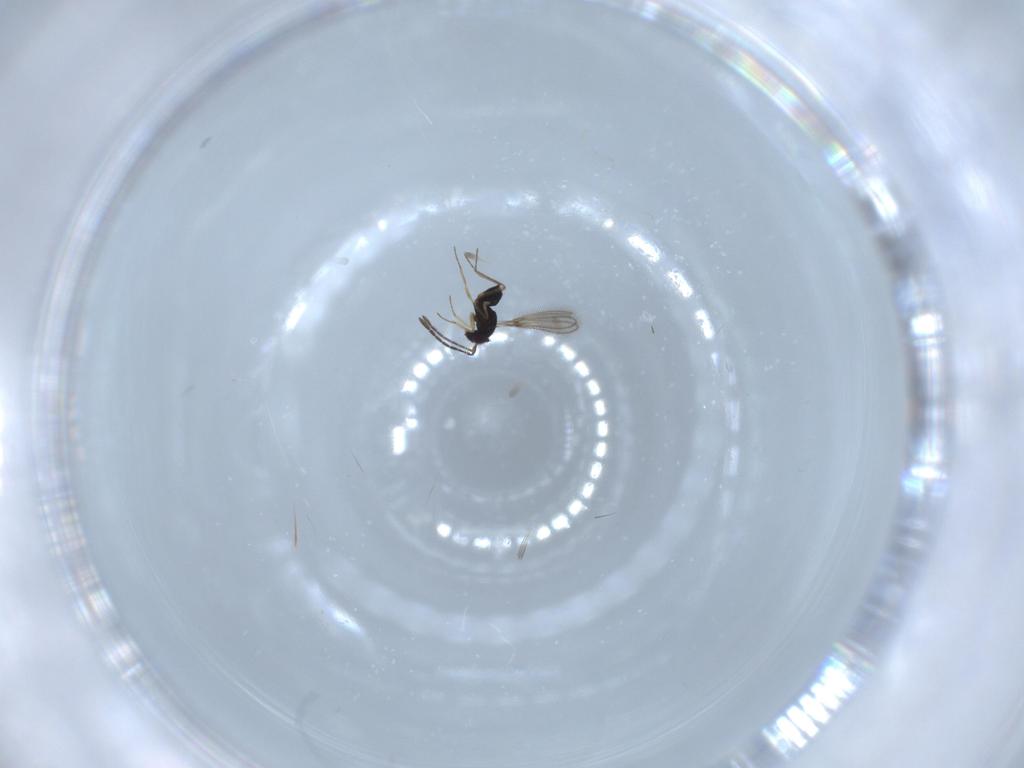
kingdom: Animalia
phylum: Arthropoda
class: Insecta
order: Hymenoptera
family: Mymaridae
